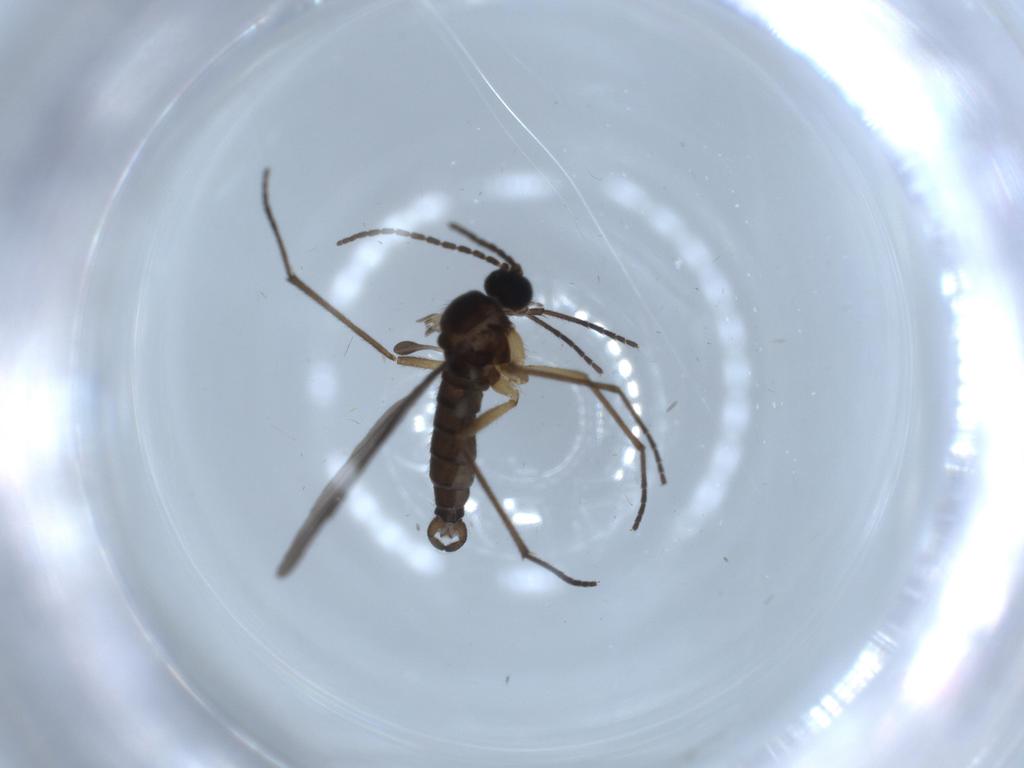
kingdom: Animalia
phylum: Arthropoda
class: Insecta
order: Diptera
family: Sciaridae
